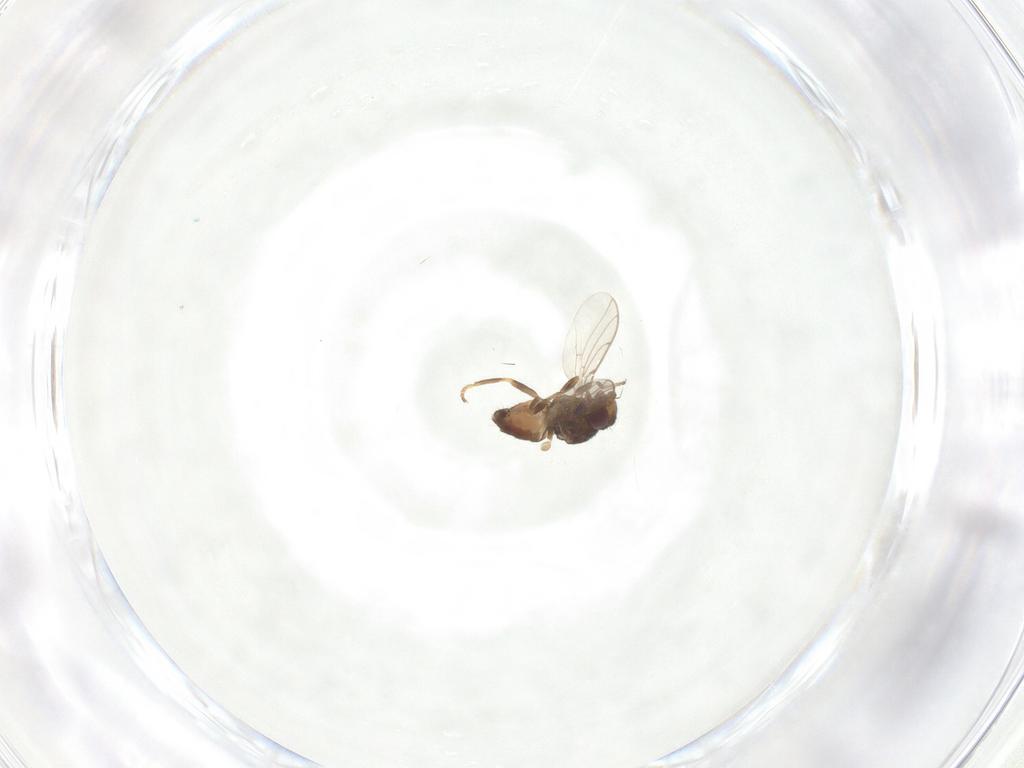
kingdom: Animalia
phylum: Arthropoda
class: Insecta
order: Diptera
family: Chloropidae
